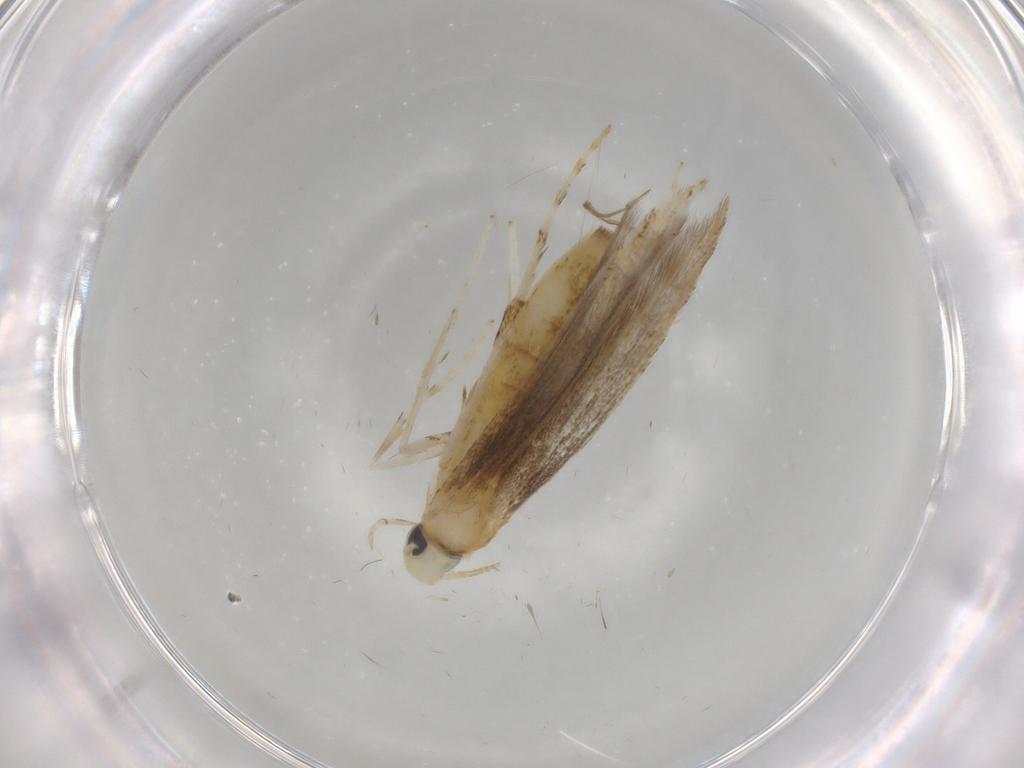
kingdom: Animalia
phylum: Arthropoda
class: Insecta
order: Lepidoptera
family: Gracillariidae
